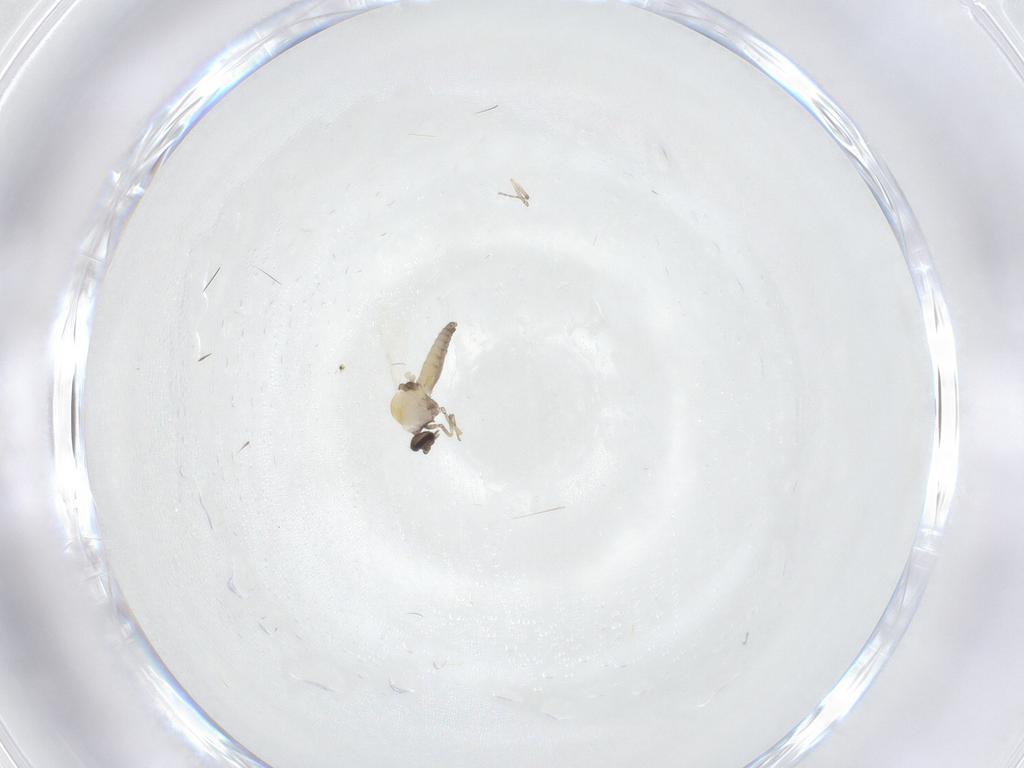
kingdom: Animalia
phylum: Arthropoda
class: Insecta
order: Diptera
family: Ceratopogonidae
